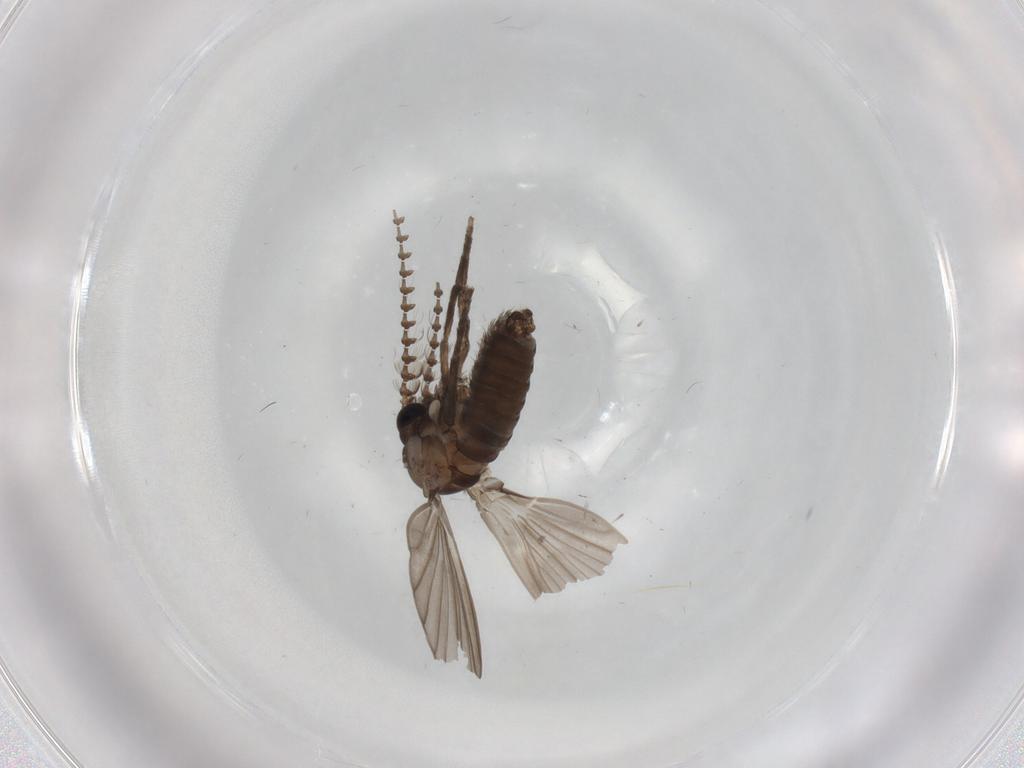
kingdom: Animalia
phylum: Arthropoda
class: Insecta
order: Diptera
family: Psychodidae
